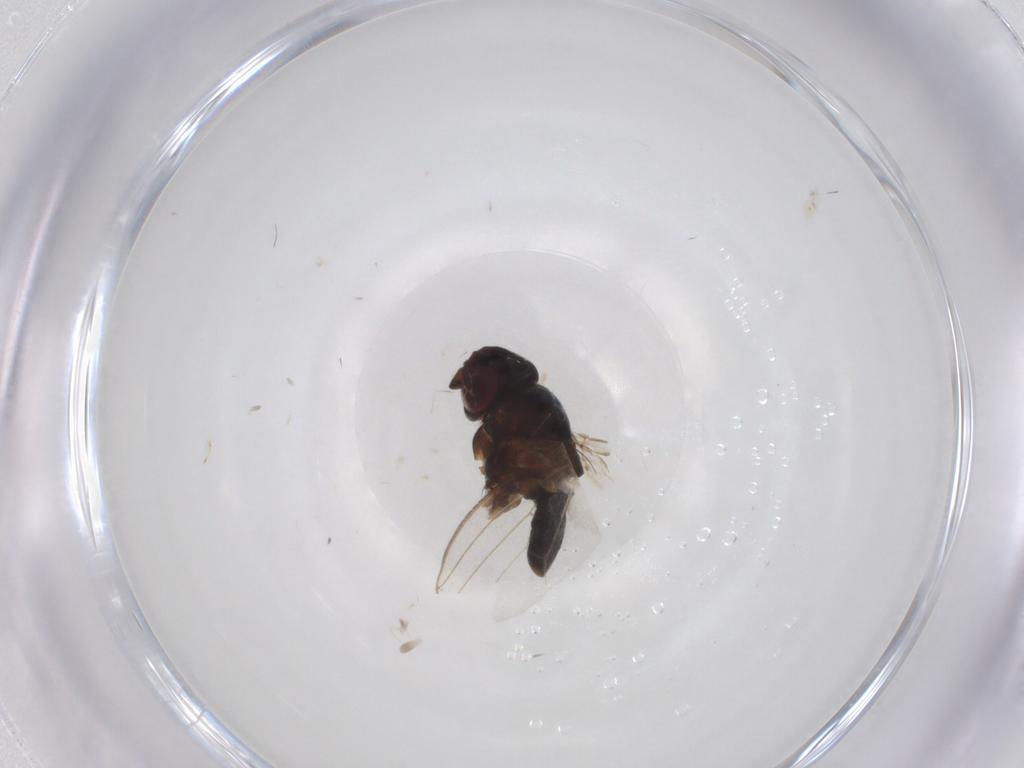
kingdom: Animalia
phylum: Arthropoda
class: Insecta
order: Diptera
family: Milichiidae
